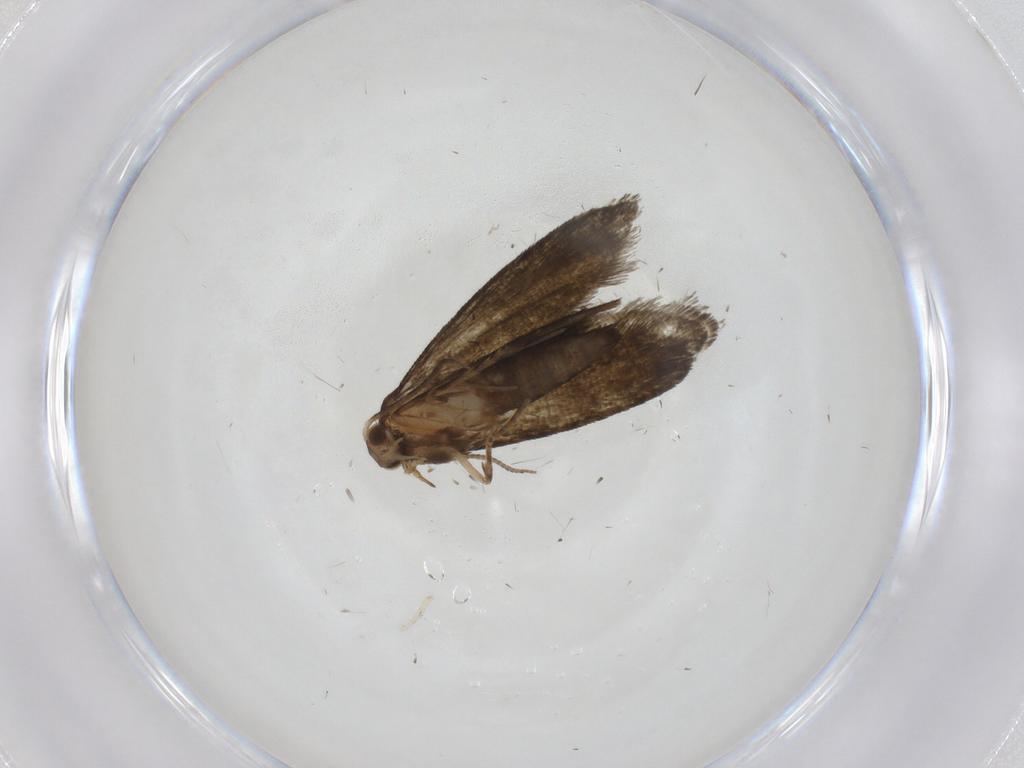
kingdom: Animalia
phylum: Arthropoda
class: Insecta
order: Lepidoptera
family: Crambidae
